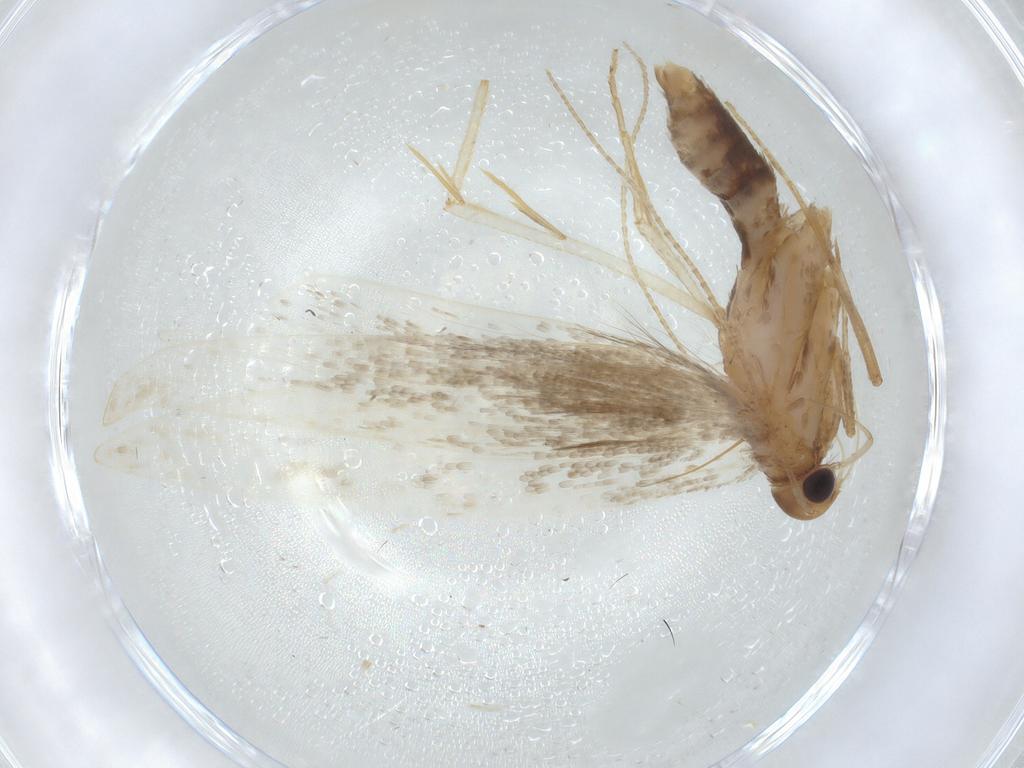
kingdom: Animalia
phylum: Arthropoda
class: Insecta
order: Lepidoptera
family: Gelechiidae
